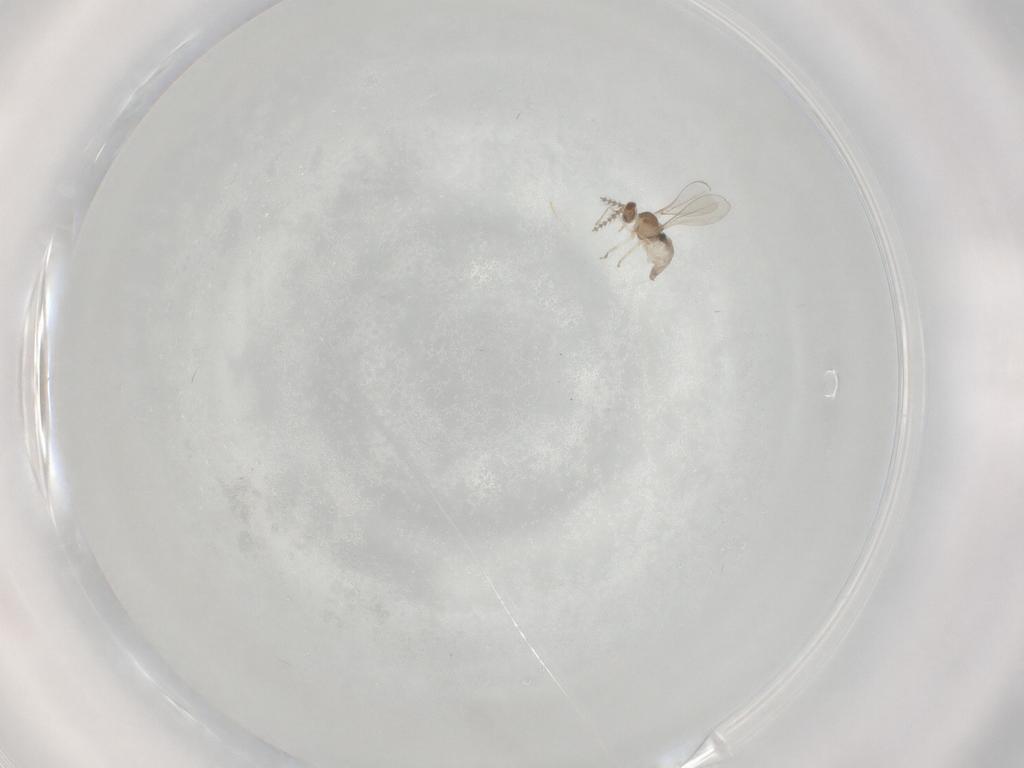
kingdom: Animalia
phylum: Arthropoda
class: Insecta
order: Diptera
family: Cecidomyiidae
